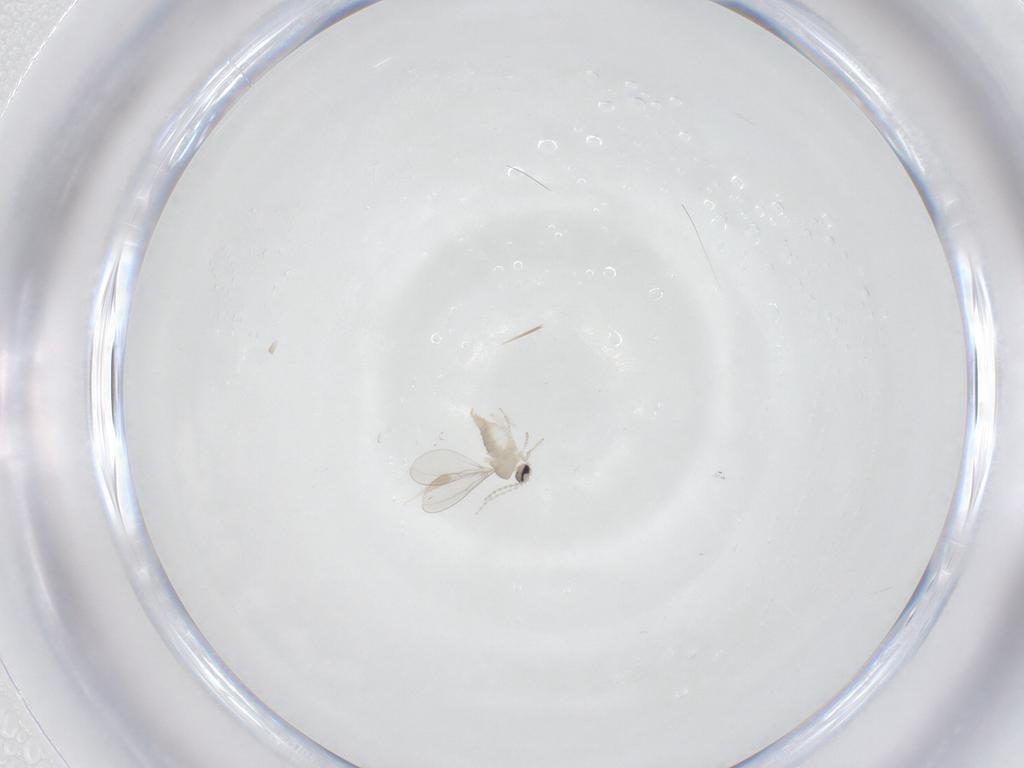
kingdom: Animalia
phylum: Arthropoda
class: Insecta
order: Diptera
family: Cecidomyiidae
